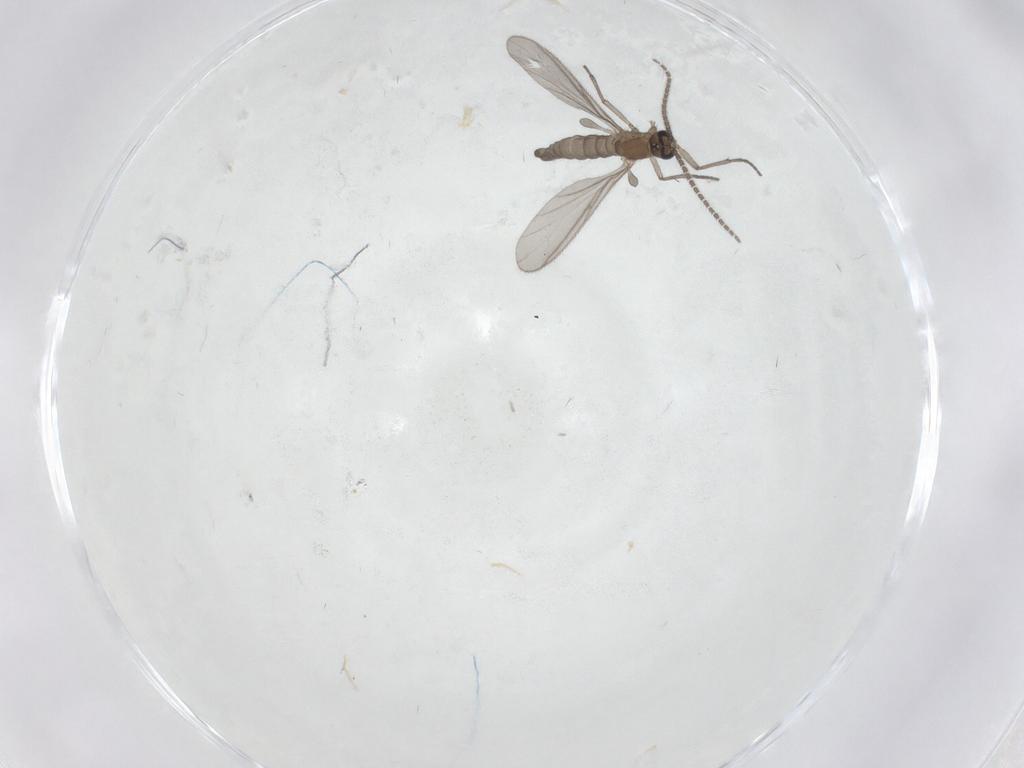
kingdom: Animalia
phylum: Arthropoda
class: Insecta
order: Diptera
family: Sciaridae
